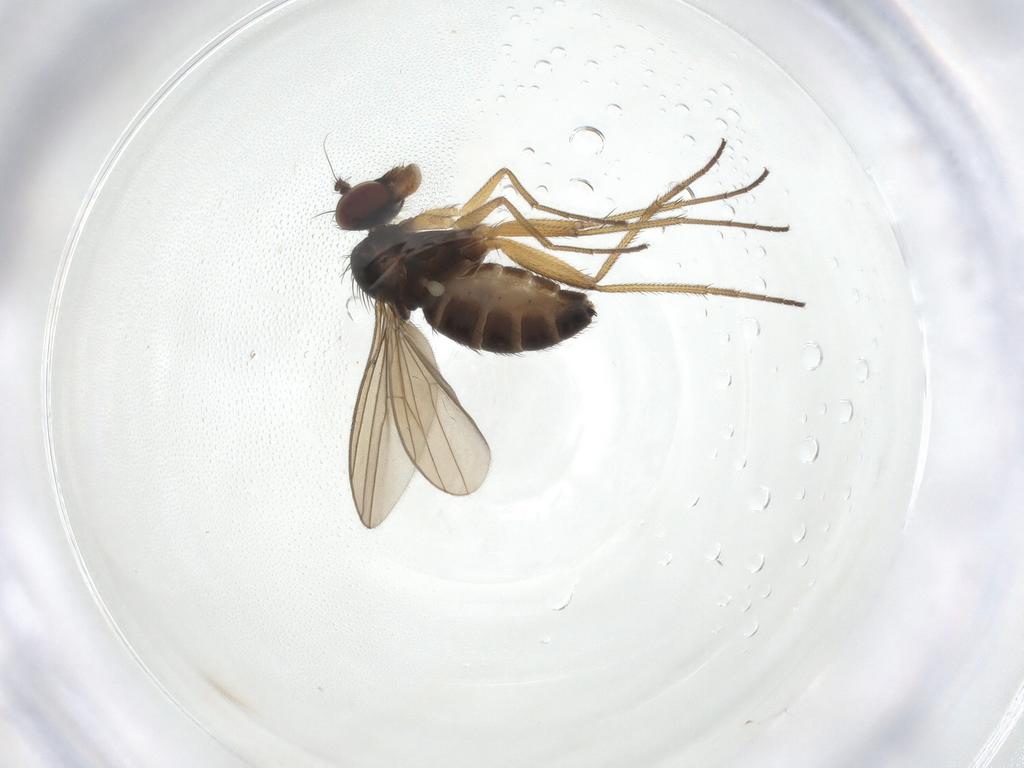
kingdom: Animalia
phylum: Arthropoda
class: Insecta
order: Diptera
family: Dolichopodidae
